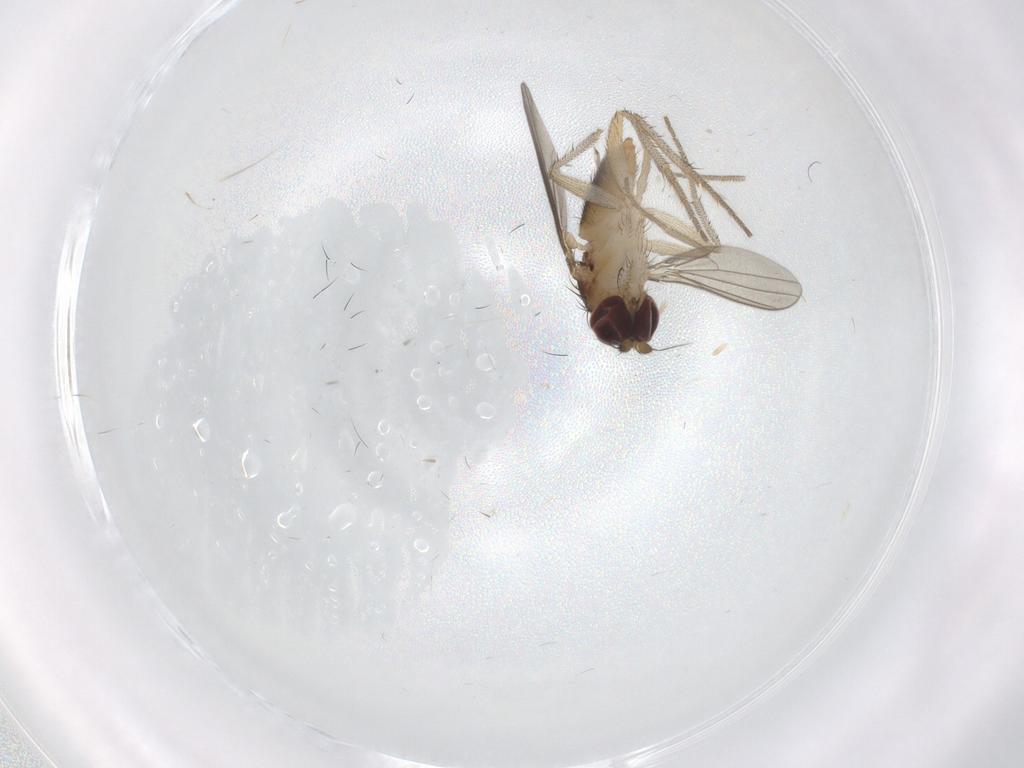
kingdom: Animalia
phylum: Arthropoda
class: Insecta
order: Diptera
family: Dolichopodidae
